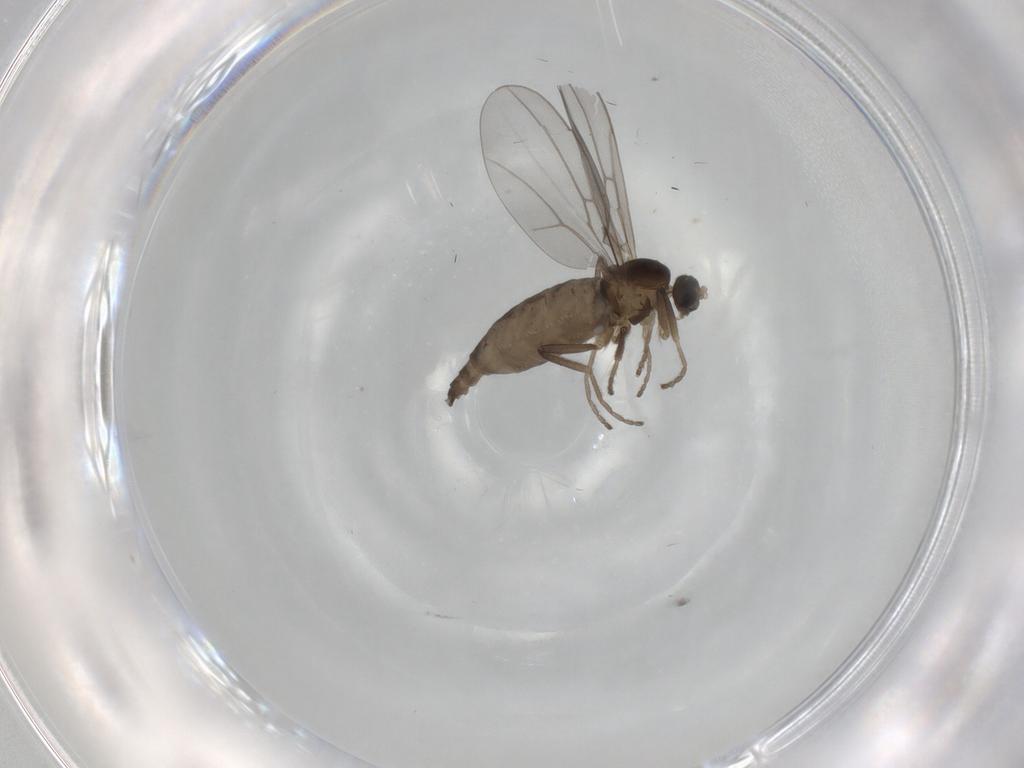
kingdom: Animalia
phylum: Arthropoda
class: Insecta
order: Diptera
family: Cecidomyiidae
